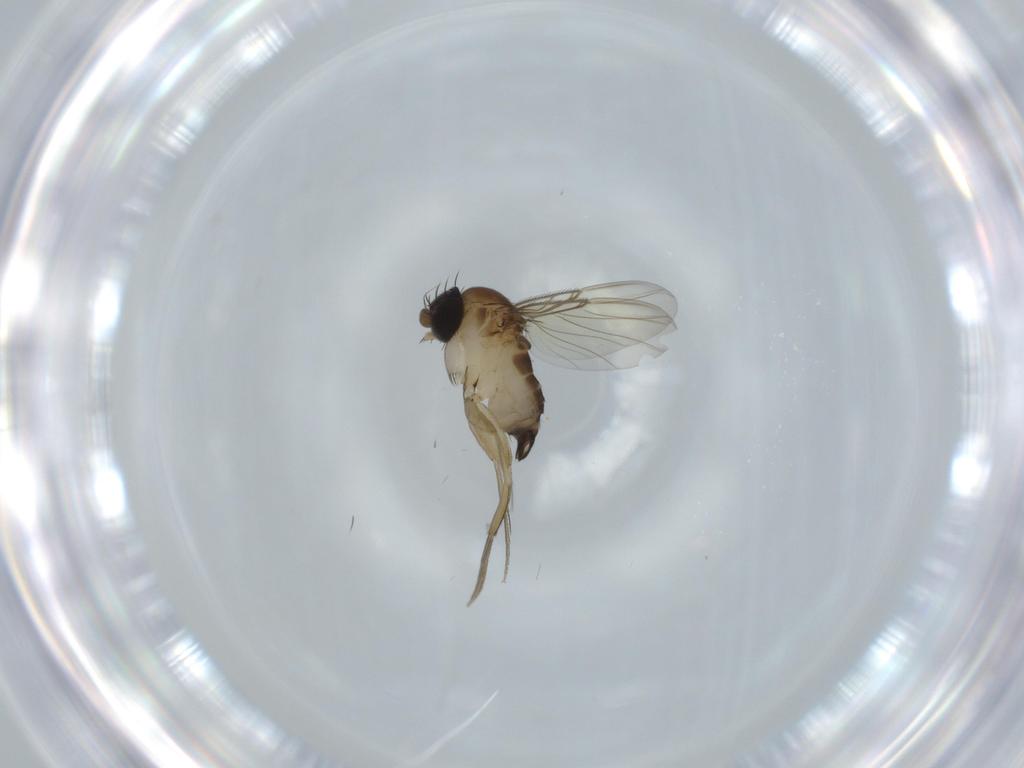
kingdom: Animalia
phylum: Arthropoda
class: Insecta
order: Diptera
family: Phoridae
